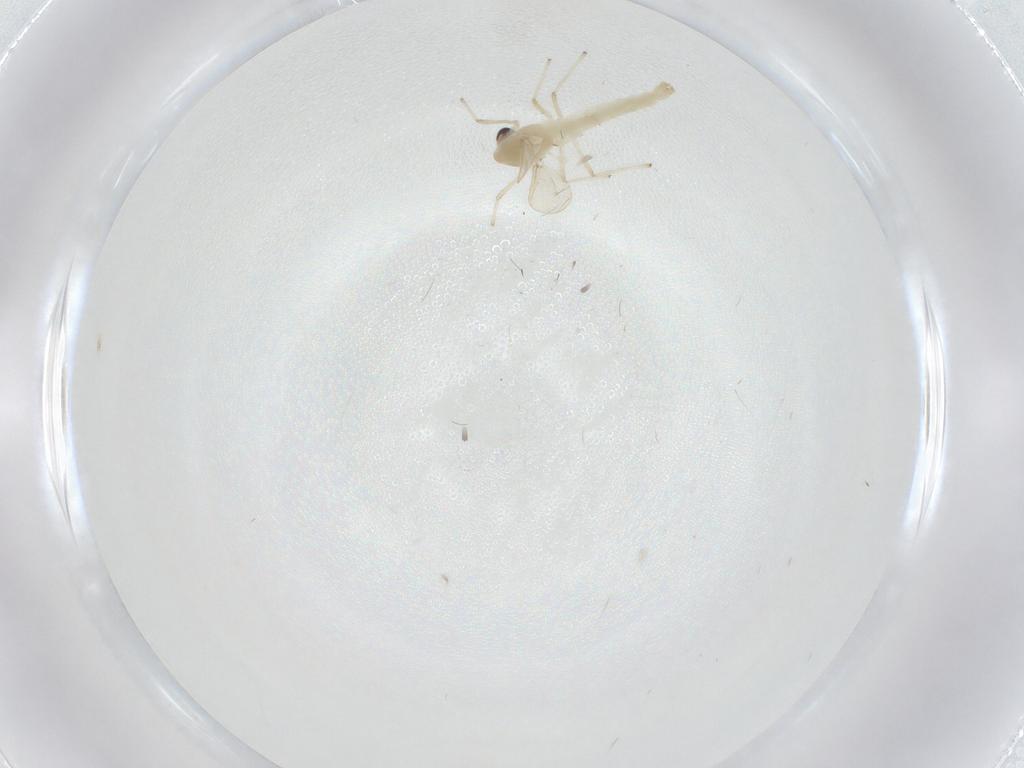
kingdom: Animalia
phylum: Arthropoda
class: Insecta
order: Diptera
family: Chironomidae
